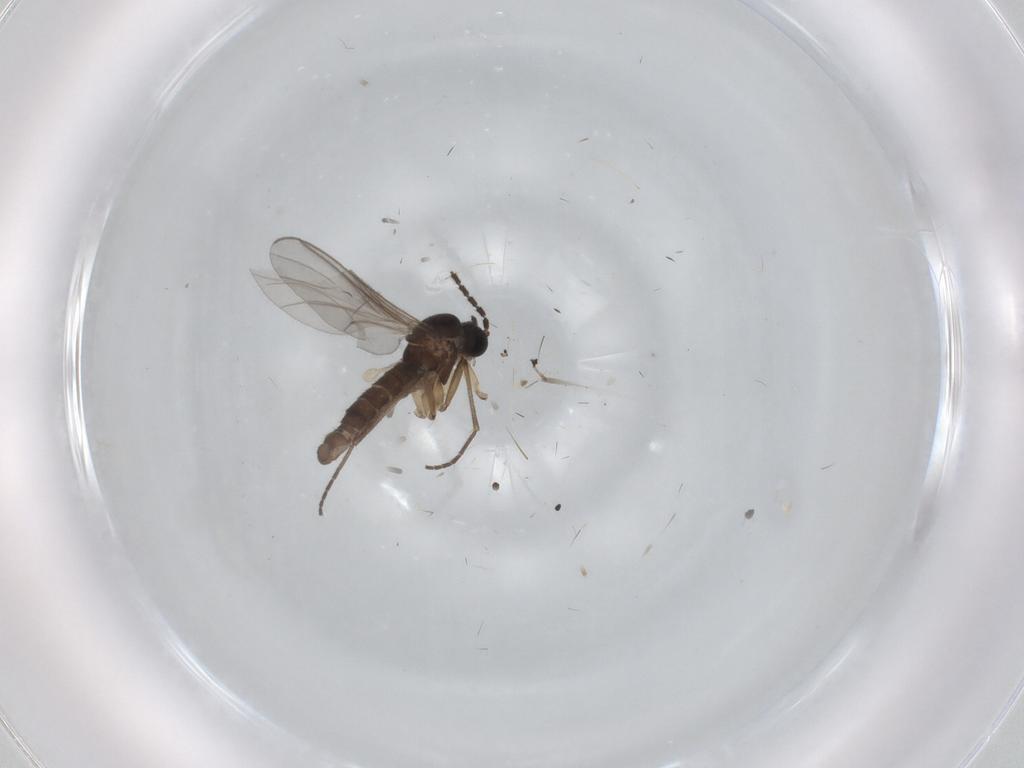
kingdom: Animalia
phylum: Arthropoda
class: Insecta
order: Diptera
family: Sciaridae
